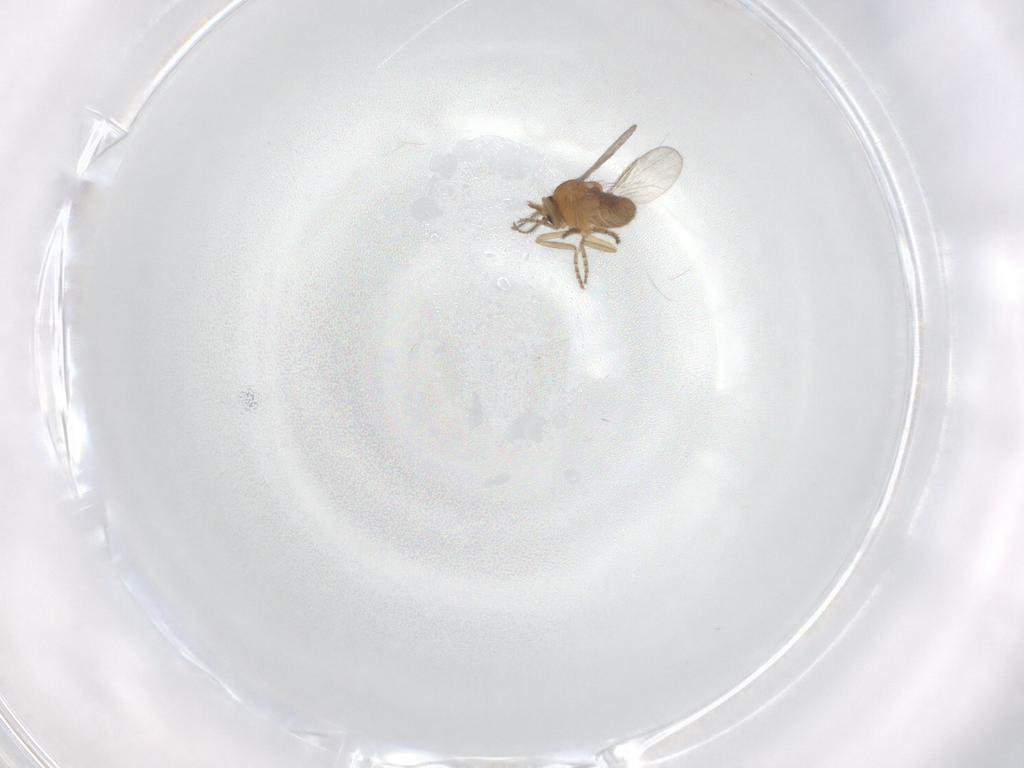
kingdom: Animalia
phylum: Arthropoda
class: Insecta
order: Diptera
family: Ceratopogonidae
